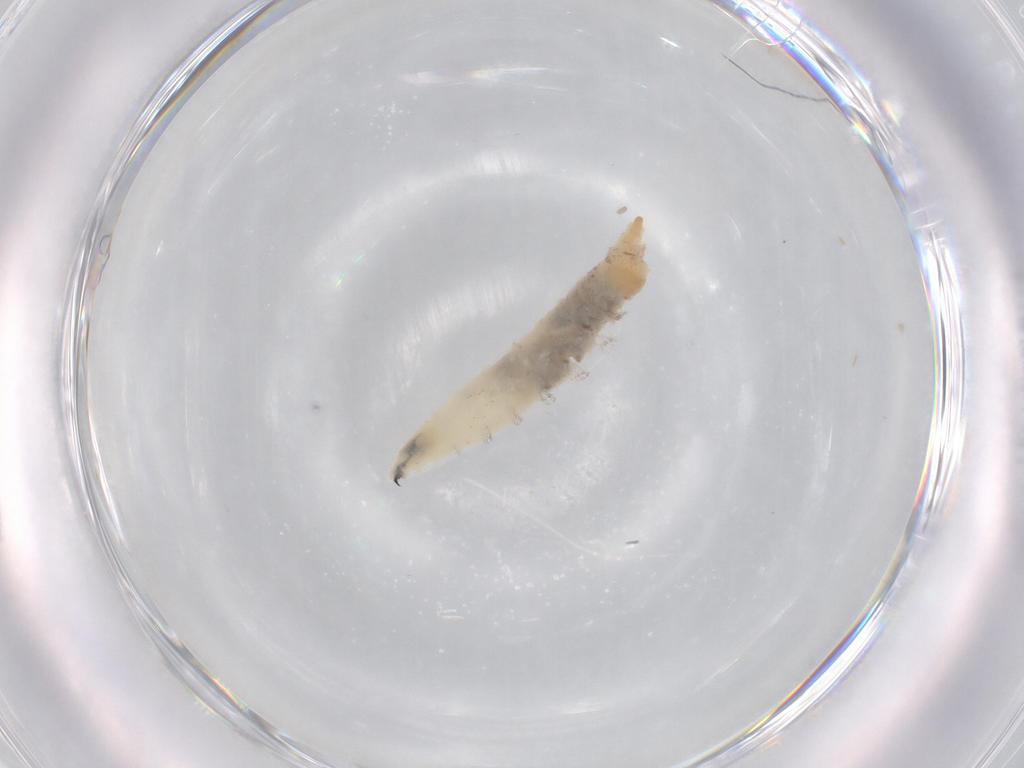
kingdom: Animalia
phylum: Arthropoda
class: Insecta
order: Diptera
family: Drosophilidae
